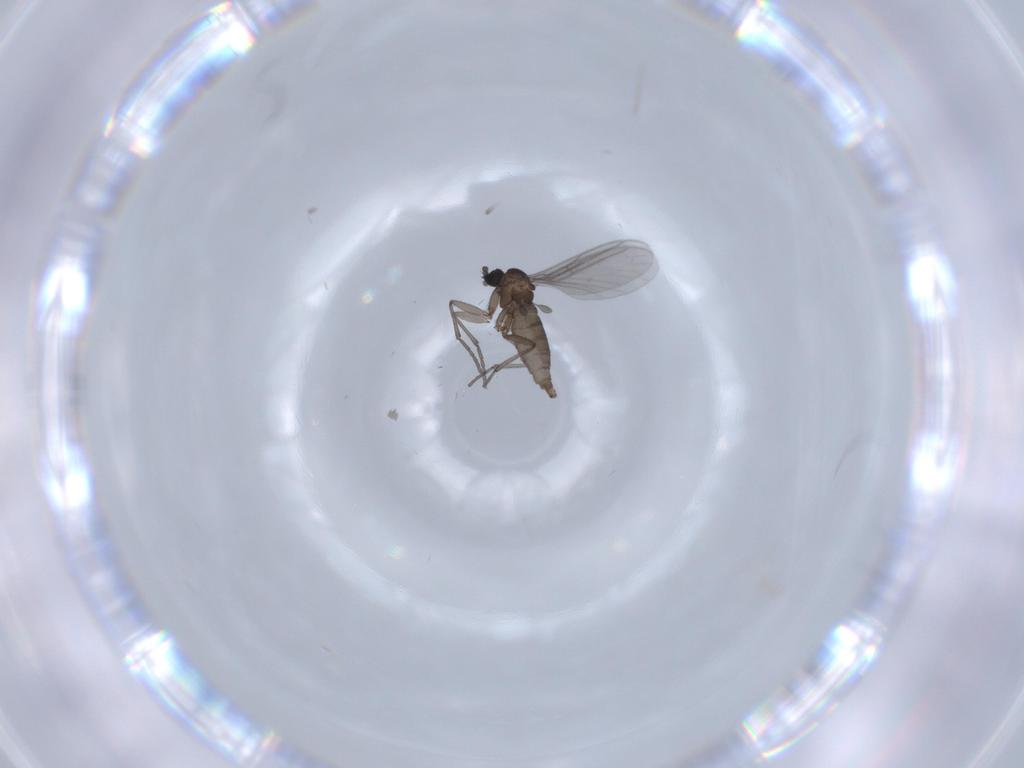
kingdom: Animalia
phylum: Arthropoda
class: Insecta
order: Diptera
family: Sciaridae
